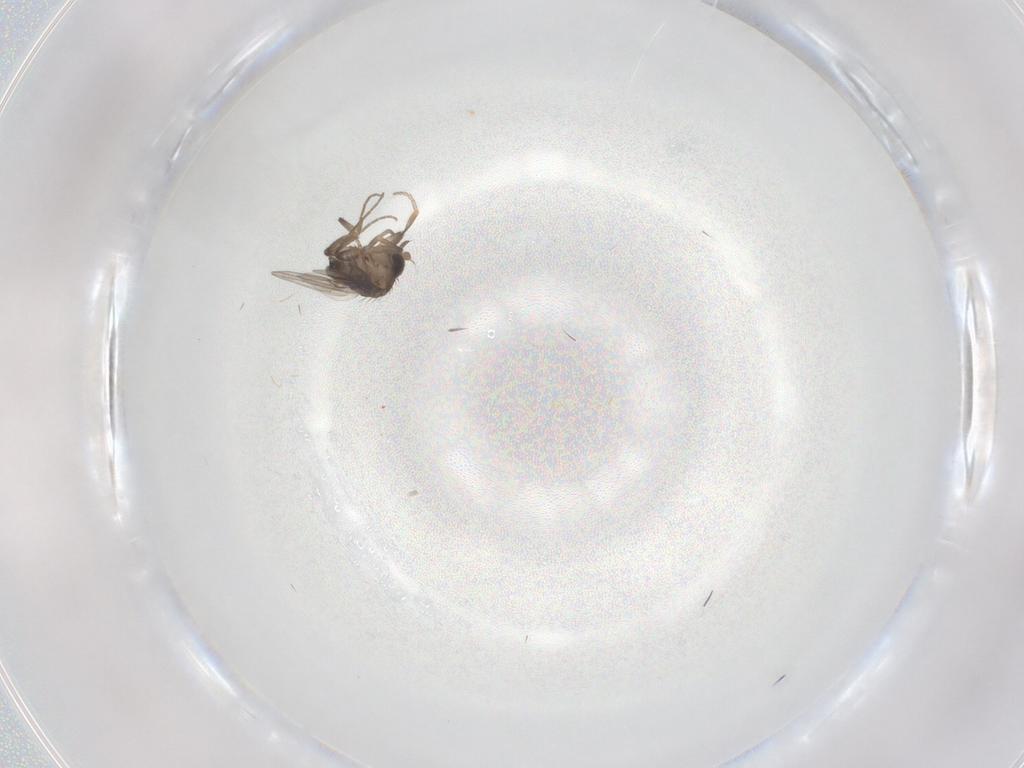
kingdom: Animalia
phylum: Arthropoda
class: Insecta
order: Diptera
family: Phoridae
